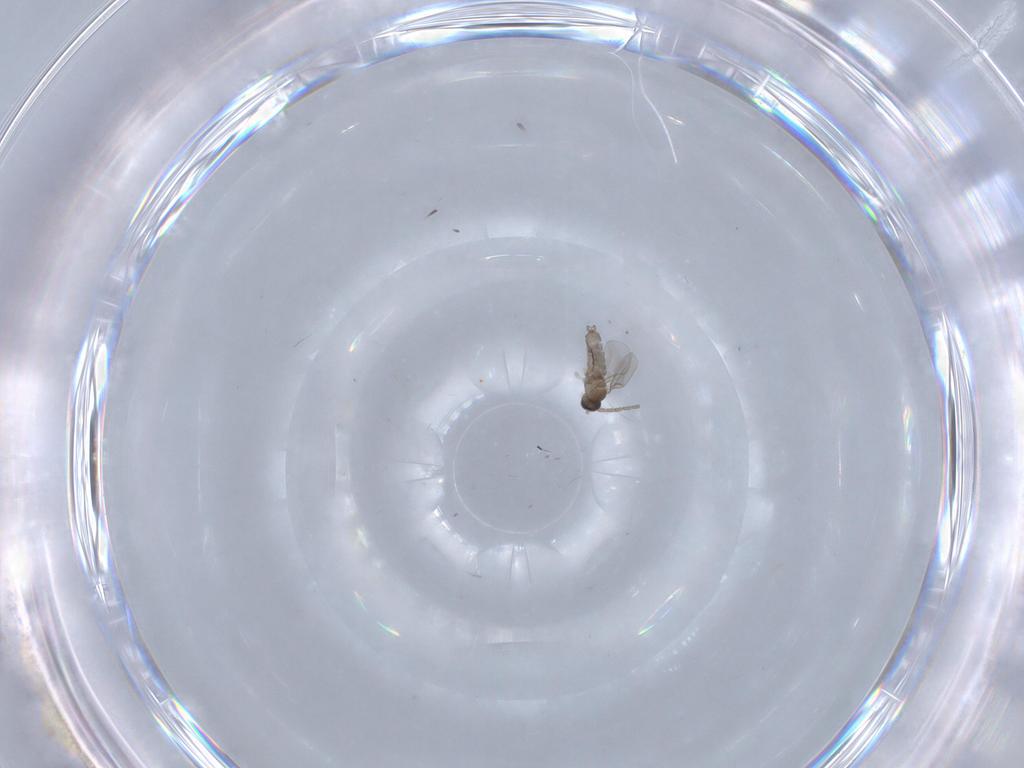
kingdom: Animalia
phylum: Arthropoda
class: Insecta
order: Diptera
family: Cecidomyiidae
